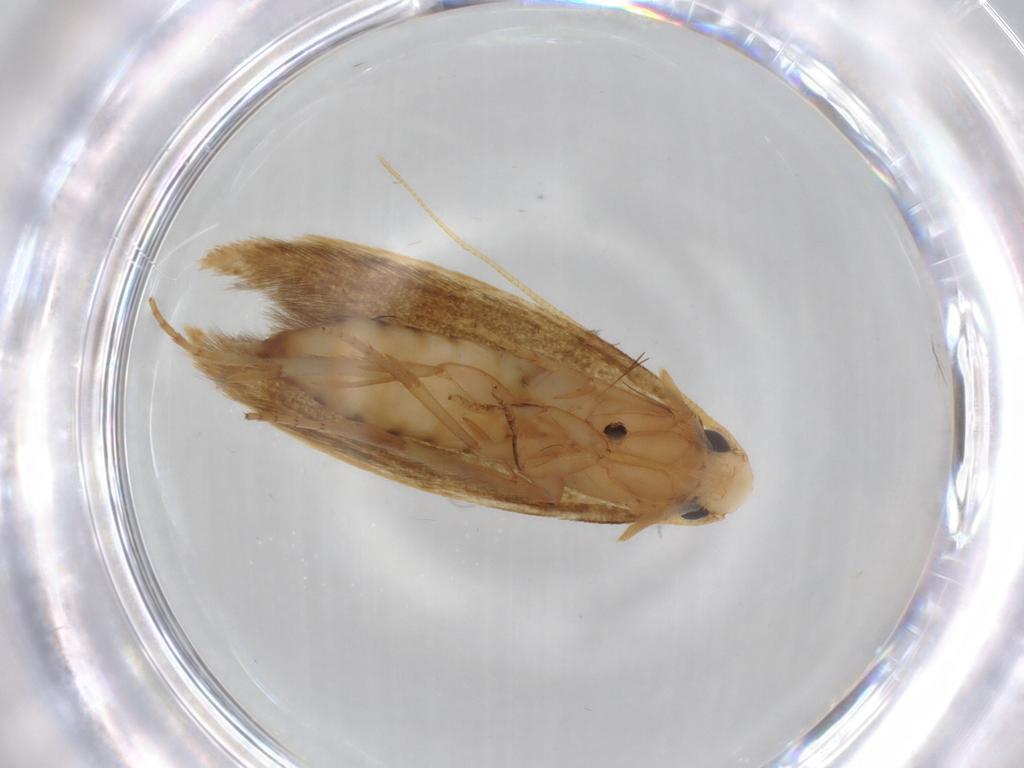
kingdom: Animalia
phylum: Arthropoda
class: Insecta
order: Lepidoptera
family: Tineidae
